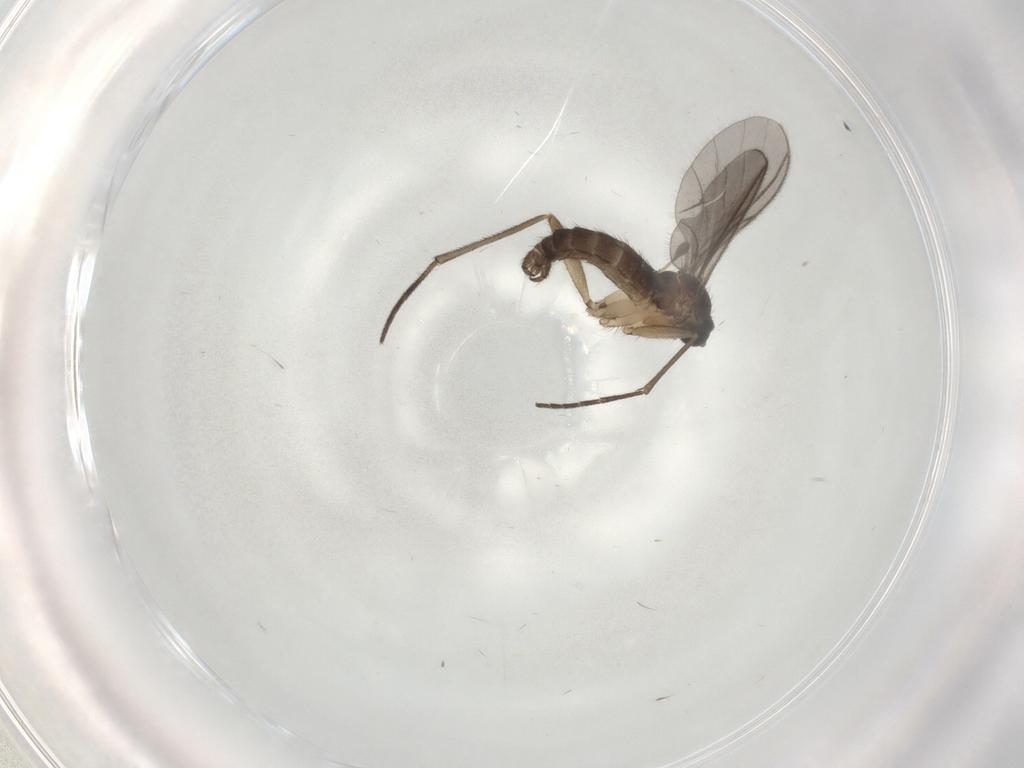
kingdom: Animalia
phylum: Arthropoda
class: Insecta
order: Diptera
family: Sciaridae
